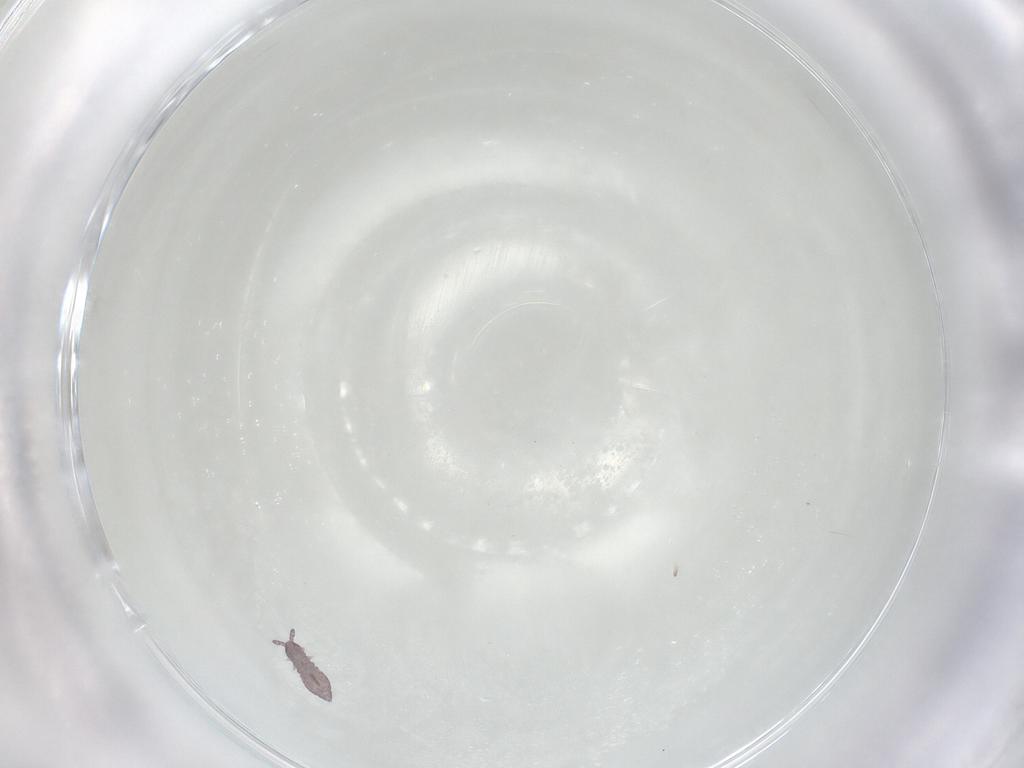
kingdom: Animalia
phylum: Arthropoda
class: Collembola
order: Poduromorpha
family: Hypogastruridae
